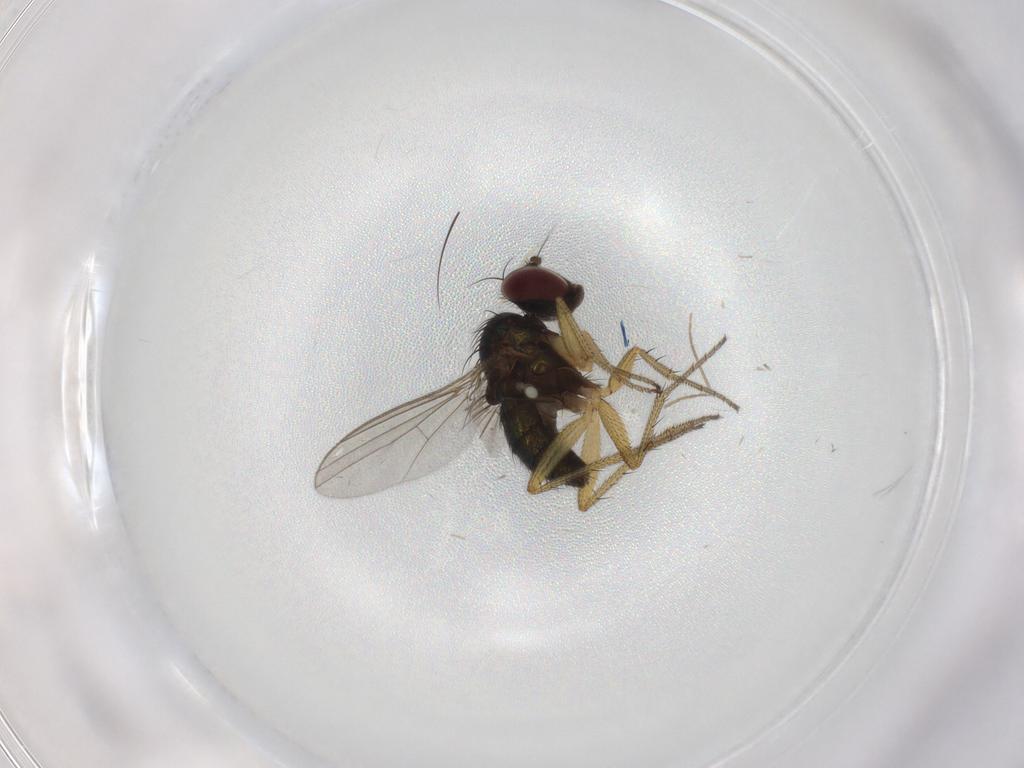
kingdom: Animalia
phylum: Arthropoda
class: Insecta
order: Diptera
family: Dolichopodidae
